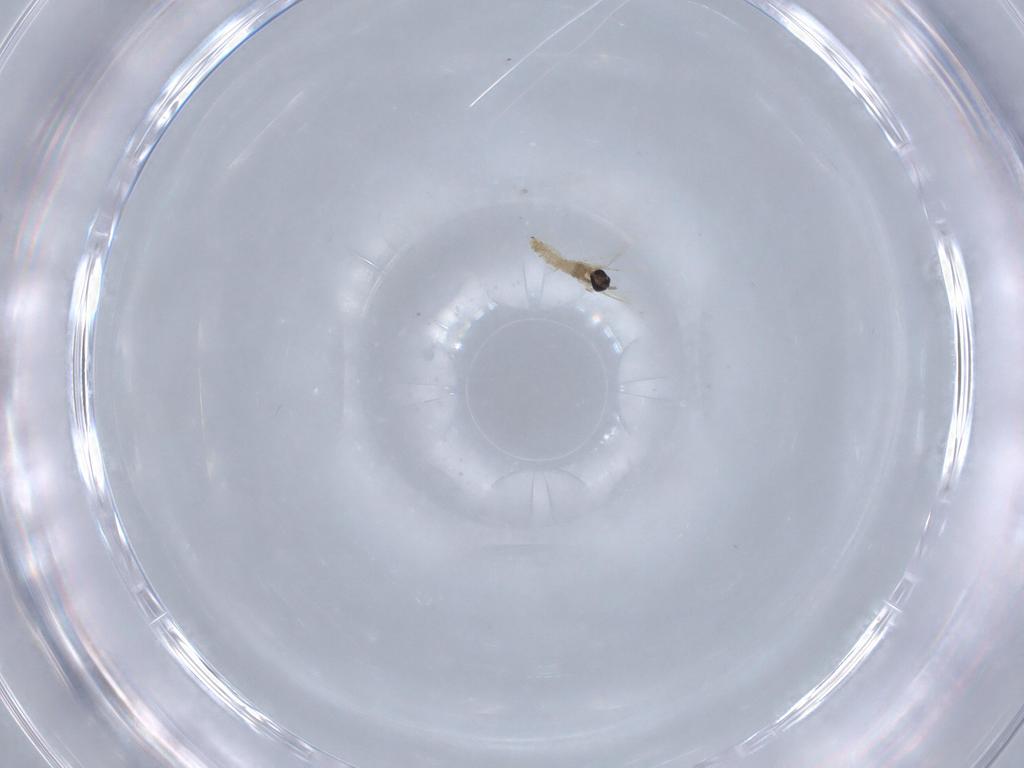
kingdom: Animalia
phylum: Arthropoda
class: Insecta
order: Diptera
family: Cecidomyiidae
